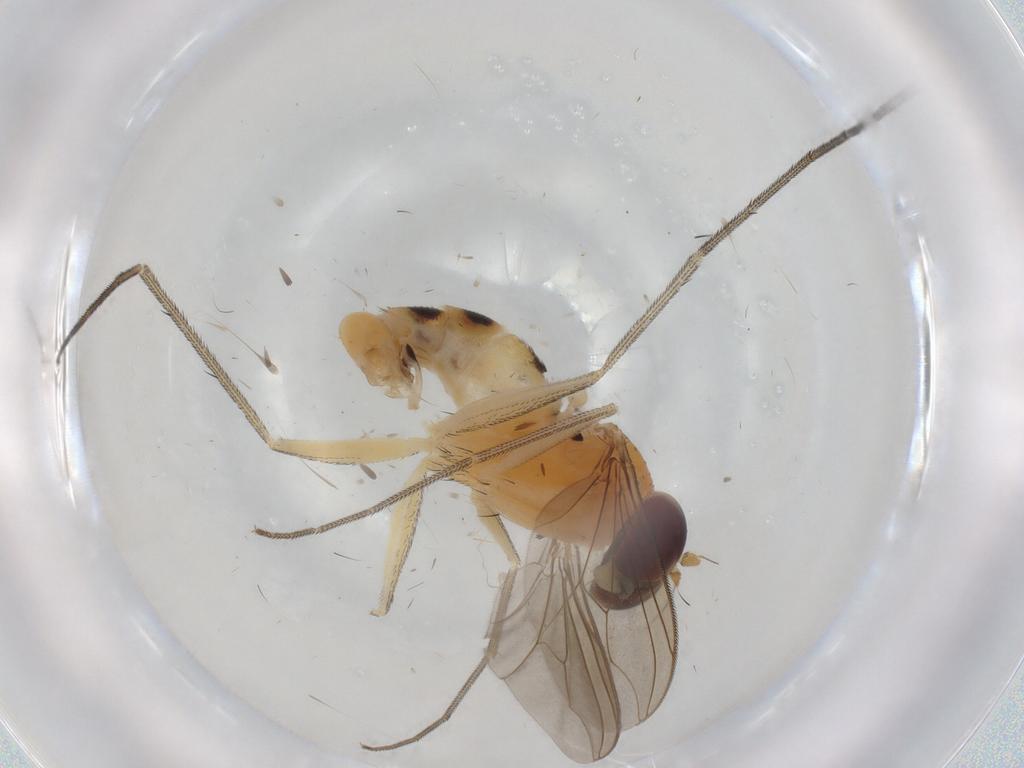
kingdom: Animalia
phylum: Arthropoda
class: Insecta
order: Diptera
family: Dolichopodidae
